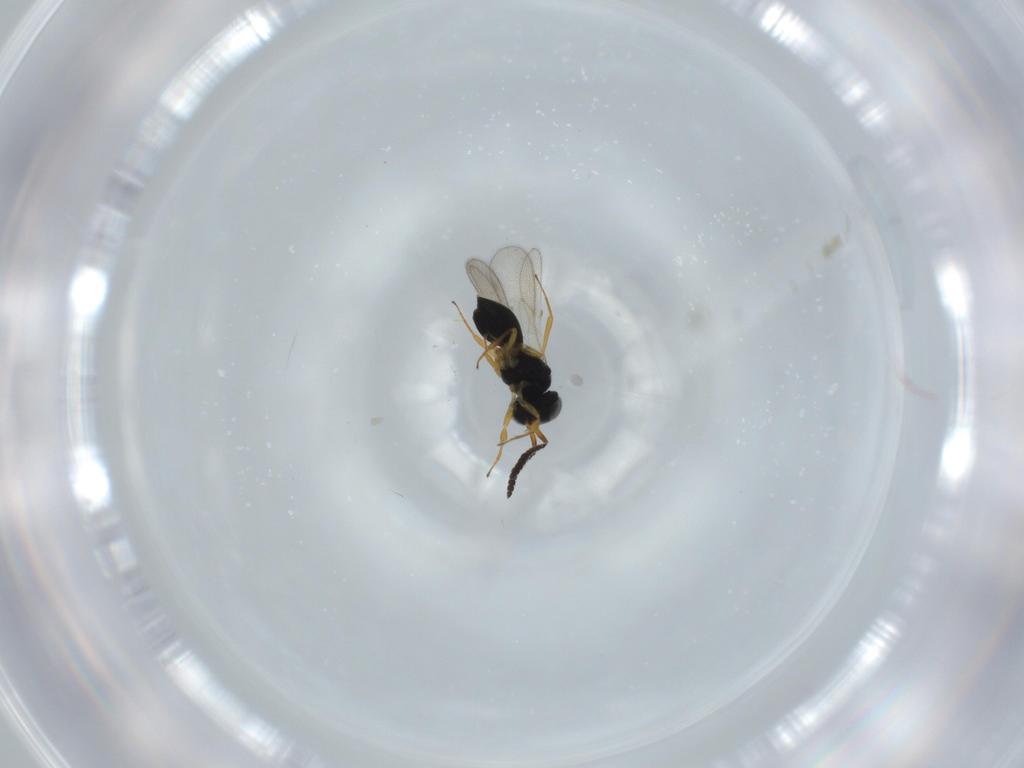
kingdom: Animalia
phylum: Arthropoda
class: Insecta
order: Hymenoptera
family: Scelionidae
